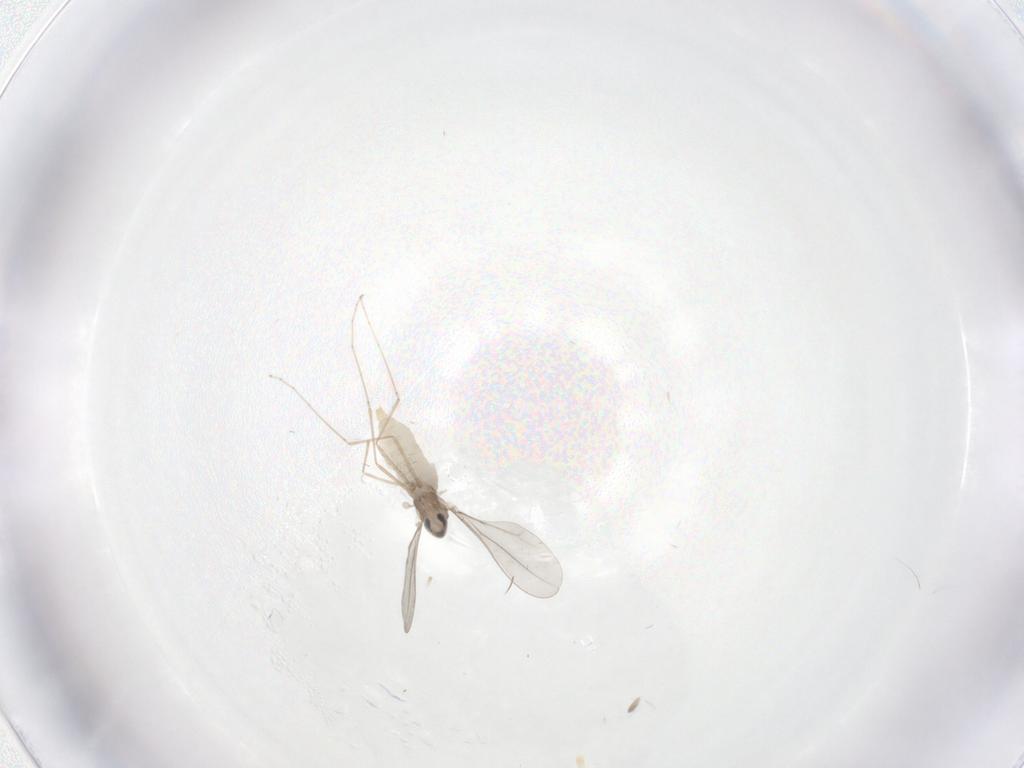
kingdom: Animalia
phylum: Arthropoda
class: Insecta
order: Diptera
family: Sciaridae
